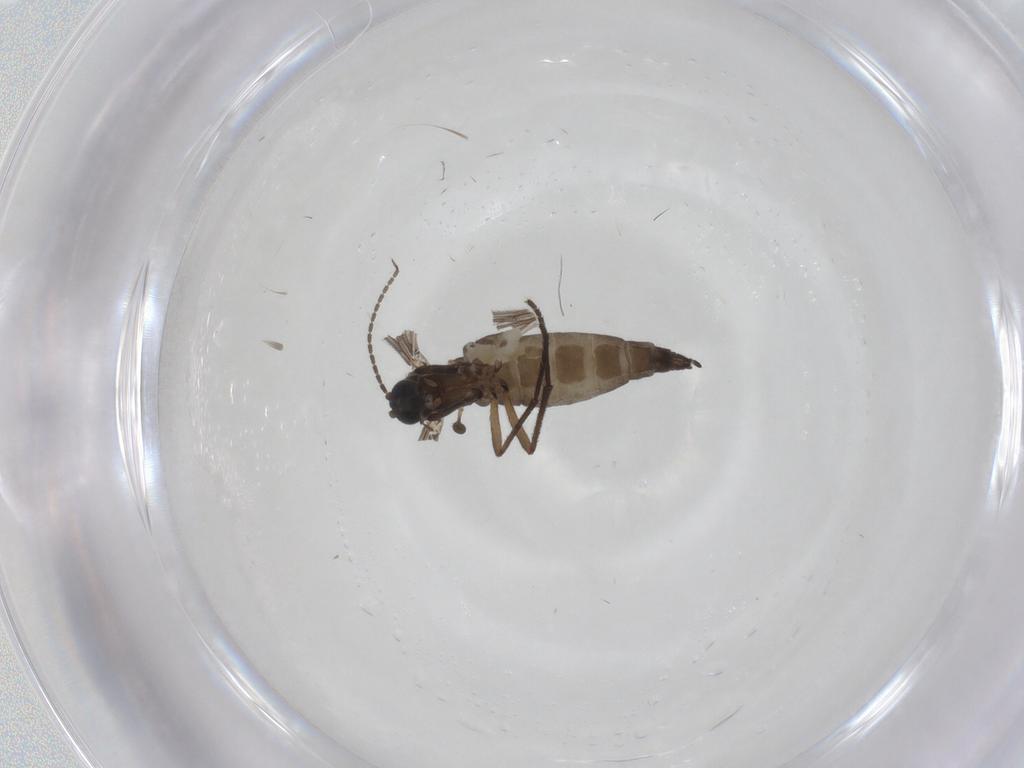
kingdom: Animalia
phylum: Arthropoda
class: Insecta
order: Diptera
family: Sciaridae
